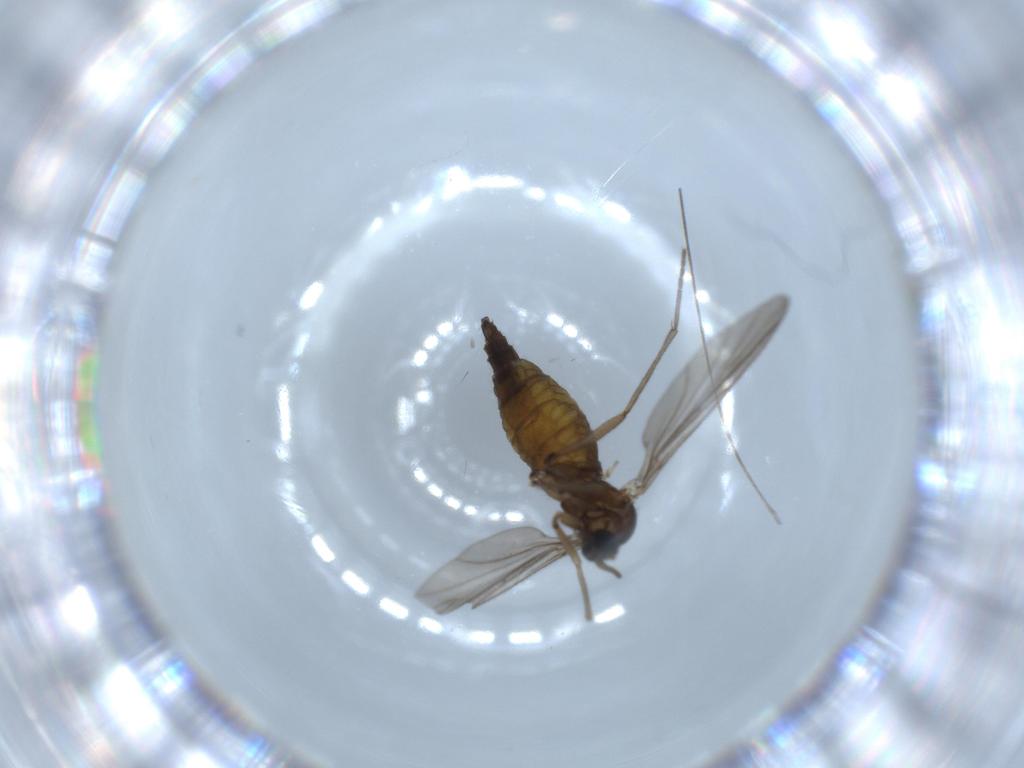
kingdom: Animalia
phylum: Arthropoda
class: Insecta
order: Diptera
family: Sciaridae
